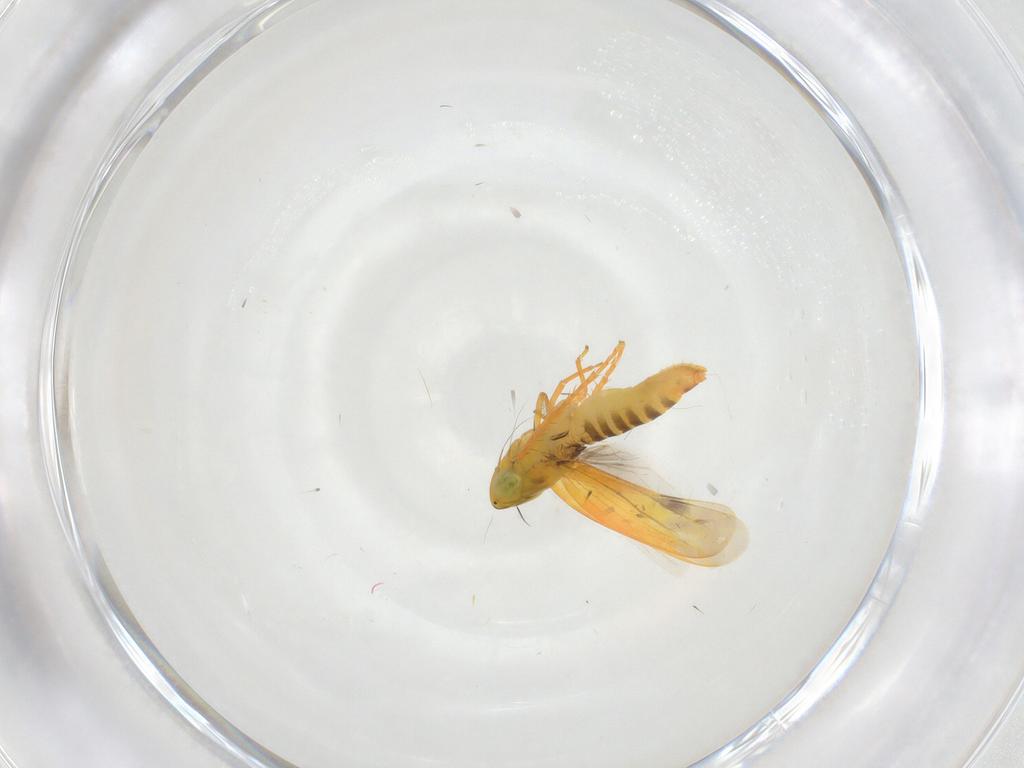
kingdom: Animalia
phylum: Arthropoda
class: Insecta
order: Hemiptera
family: Cicadellidae
